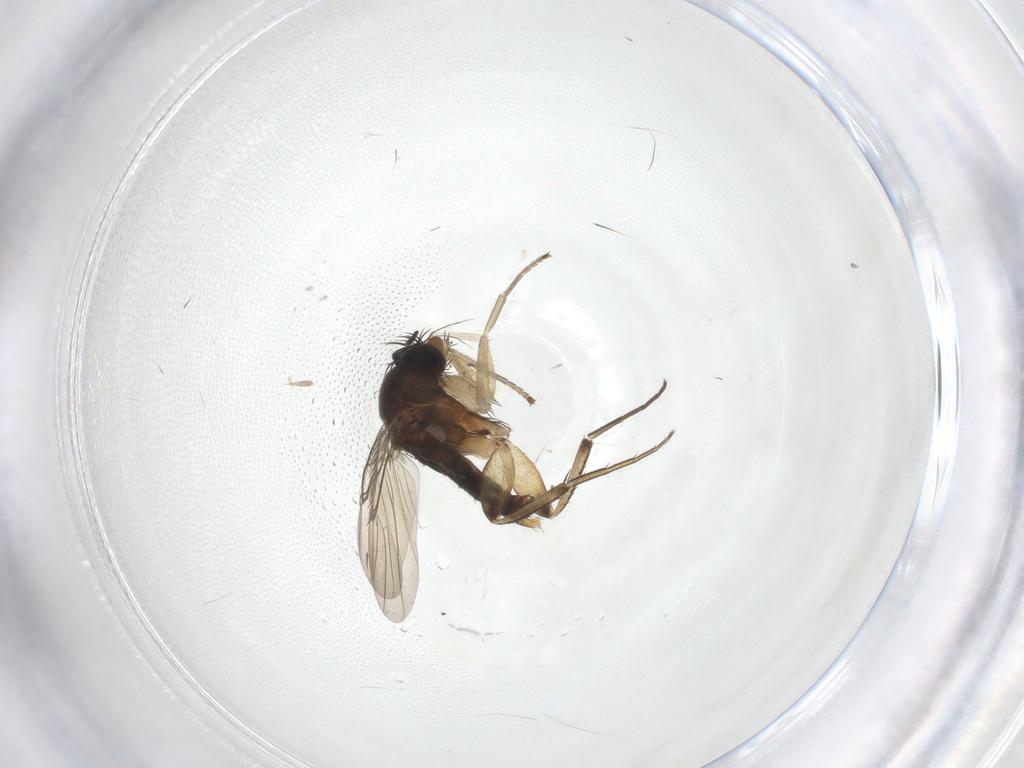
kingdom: Animalia
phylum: Arthropoda
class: Insecta
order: Diptera
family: Phoridae
